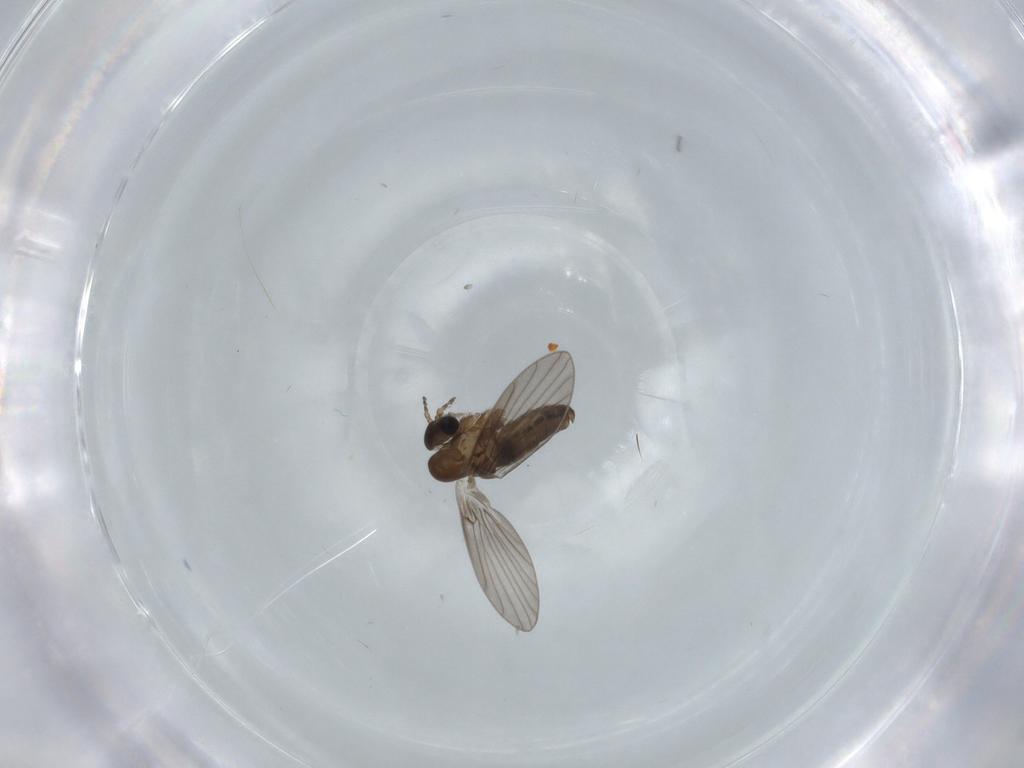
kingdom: Animalia
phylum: Arthropoda
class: Insecta
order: Diptera
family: Milichiidae
